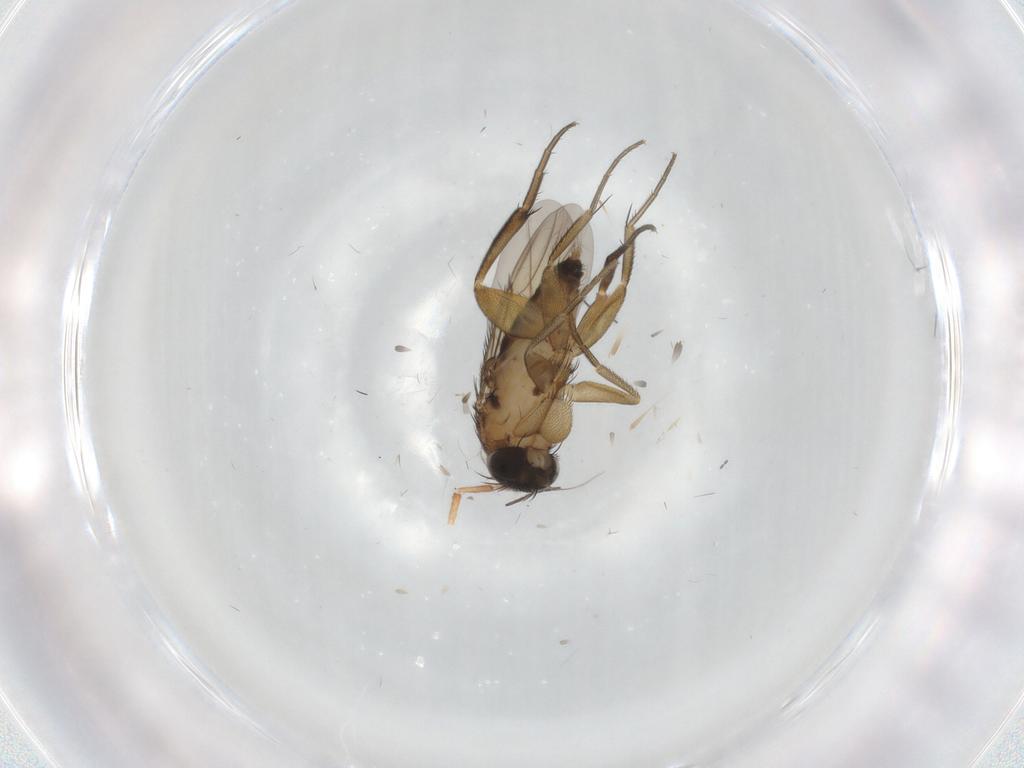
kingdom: Animalia
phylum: Arthropoda
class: Insecta
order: Diptera
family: Phoridae
